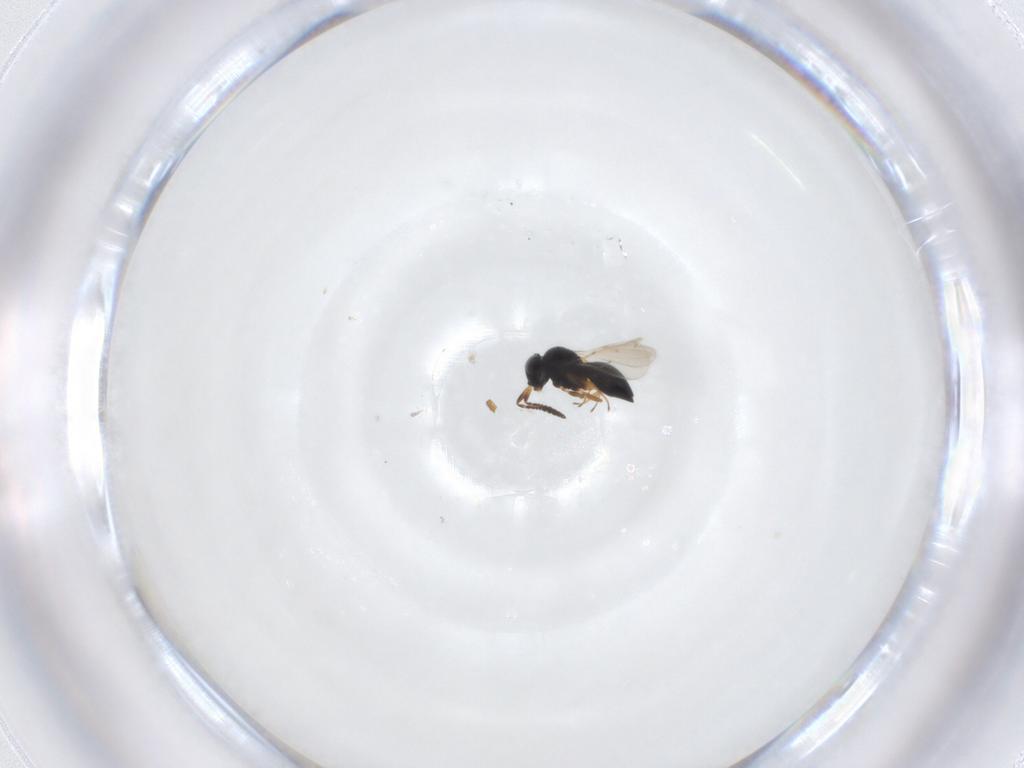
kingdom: Animalia
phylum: Arthropoda
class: Insecta
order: Hymenoptera
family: Scelionidae
